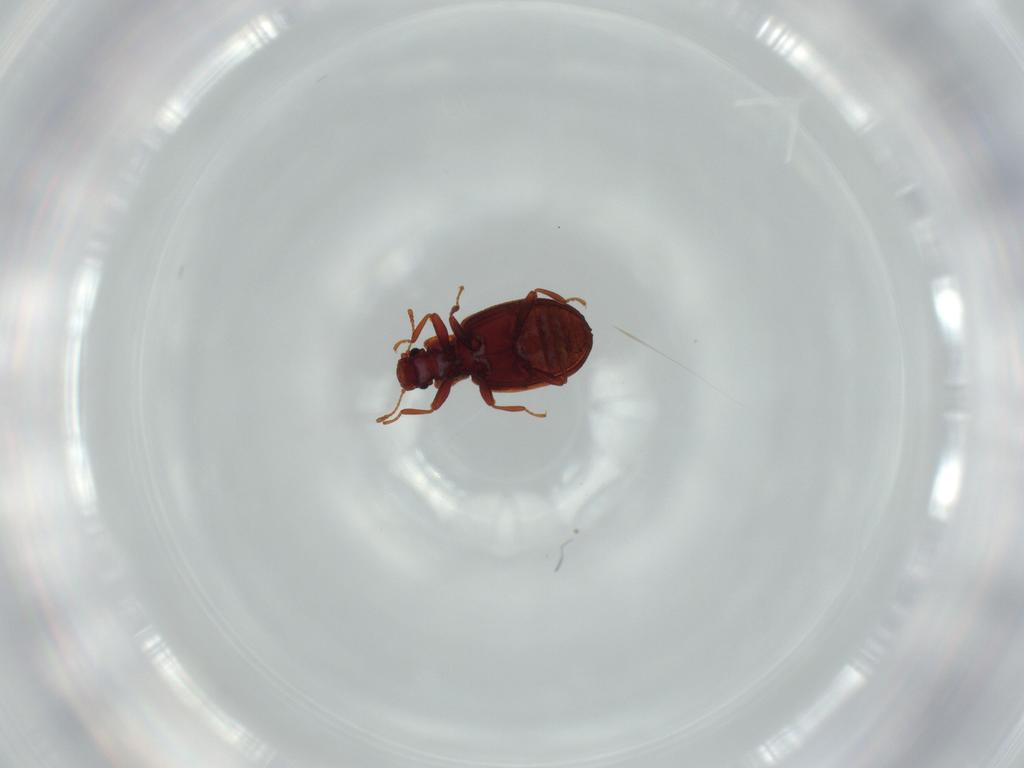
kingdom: Animalia
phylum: Arthropoda
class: Insecta
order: Coleoptera
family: Latridiidae
